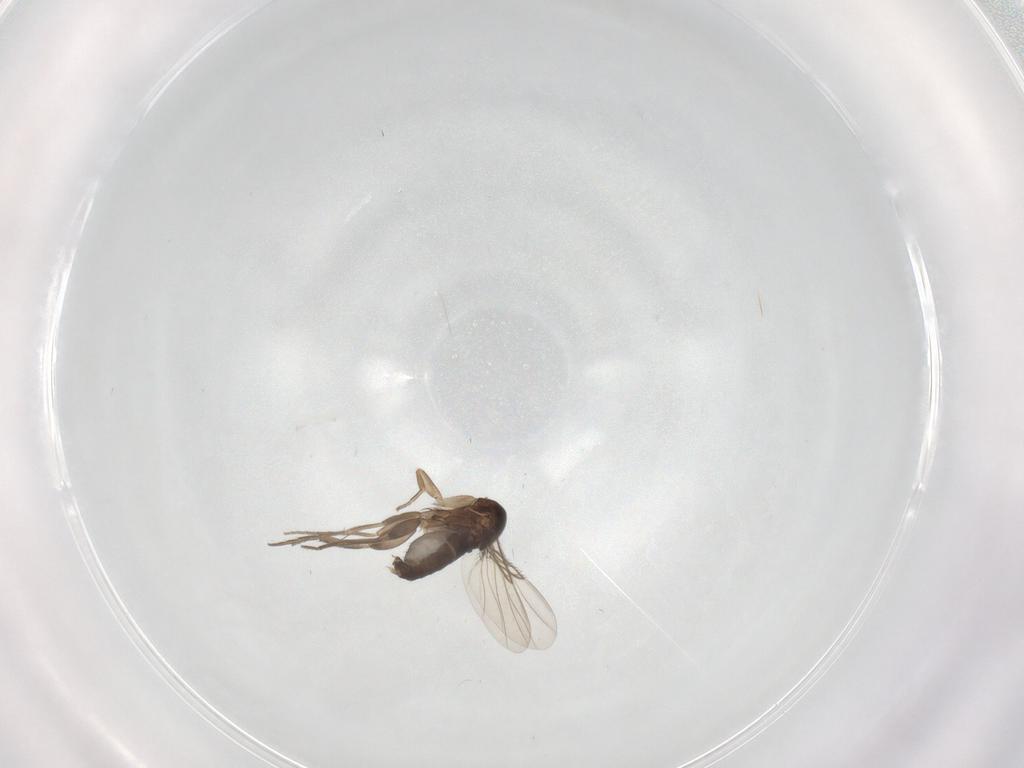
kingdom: Animalia
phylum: Arthropoda
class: Insecta
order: Diptera
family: Phoridae
